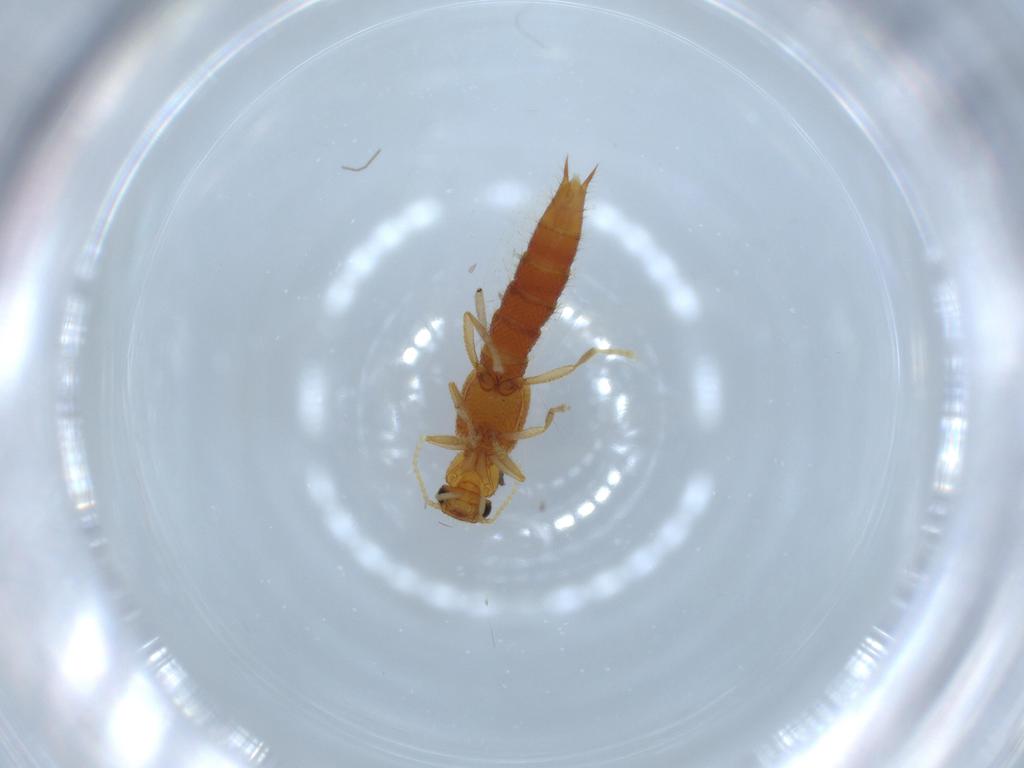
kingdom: Animalia
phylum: Arthropoda
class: Insecta
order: Coleoptera
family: Staphylinidae
